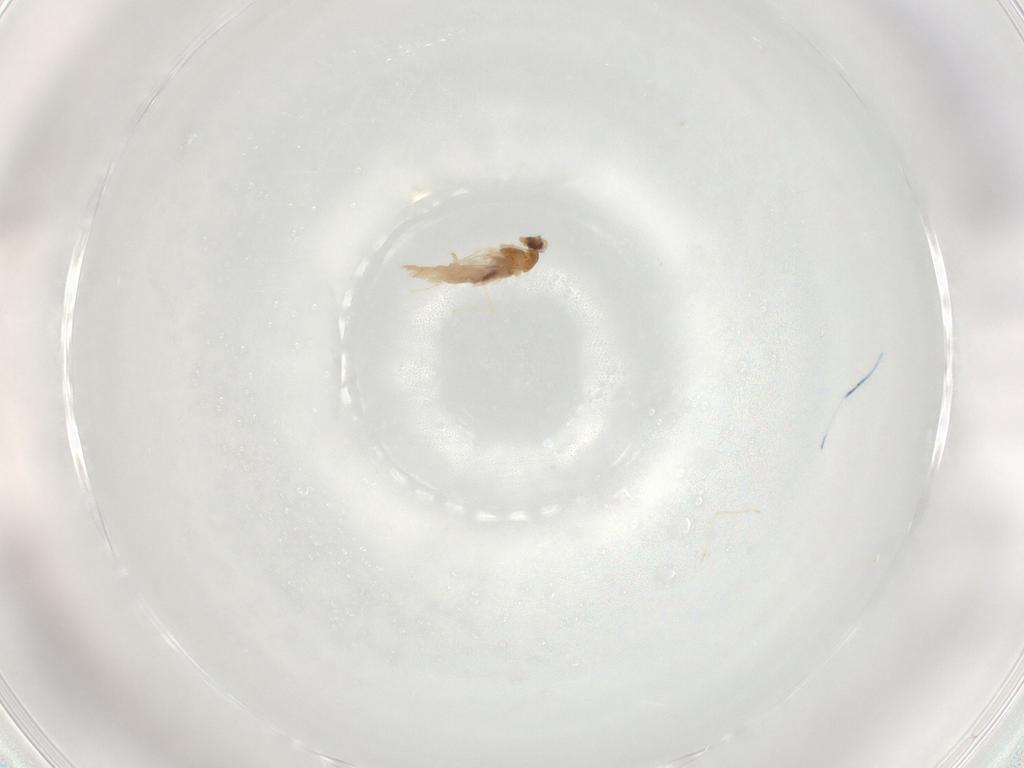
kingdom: Animalia
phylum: Arthropoda
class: Insecta
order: Diptera
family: Cecidomyiidae
